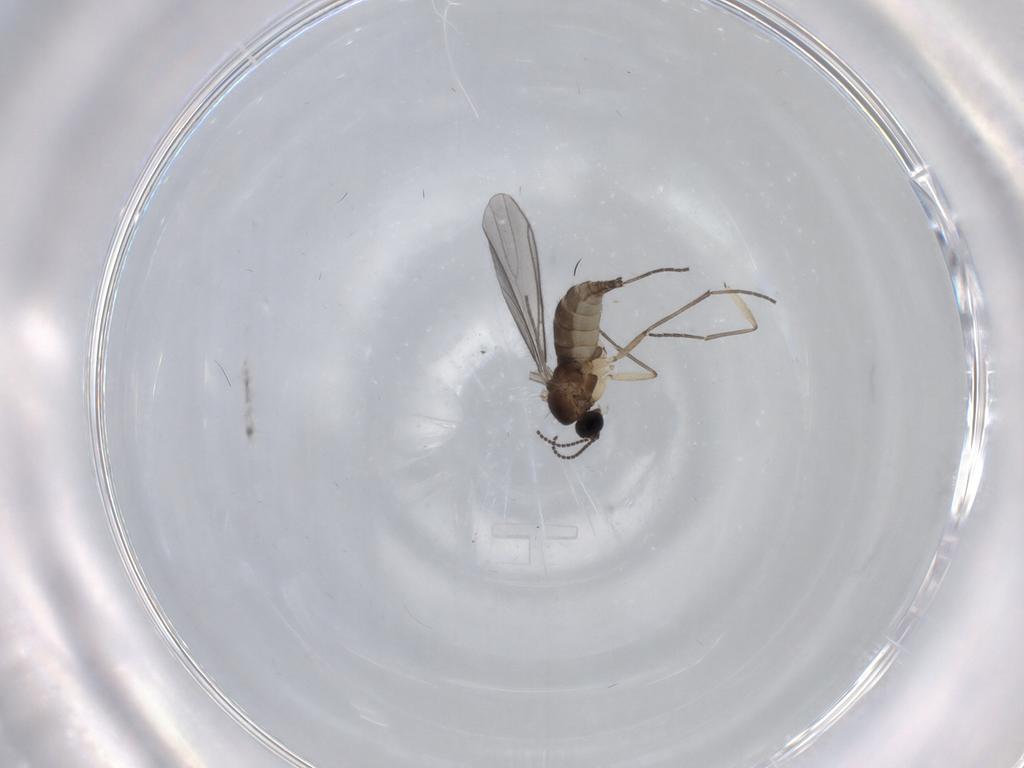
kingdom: Animalia
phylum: Arthropoda
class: Insecta
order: Diptera
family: Sciaridae
